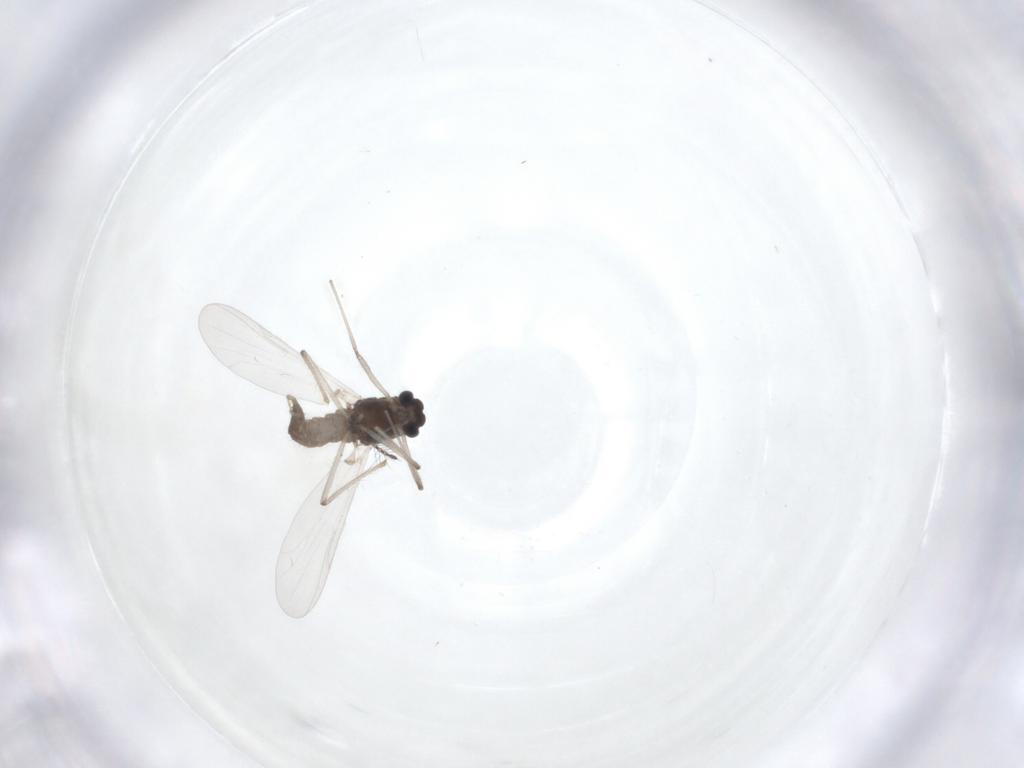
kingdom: Animalia
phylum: Arthropoda
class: Insecta
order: Diptera
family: Chironomidae
